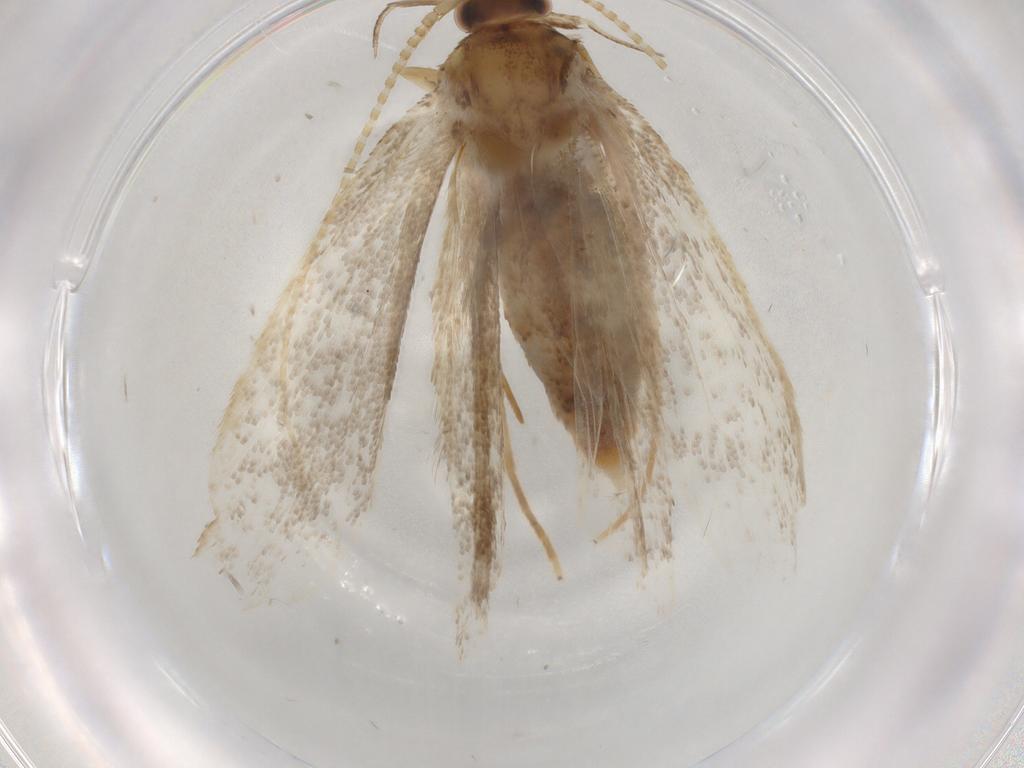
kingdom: Animalia
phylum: Arthropoda
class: Insecta
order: Lepidoptera
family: Lecithoceridae
